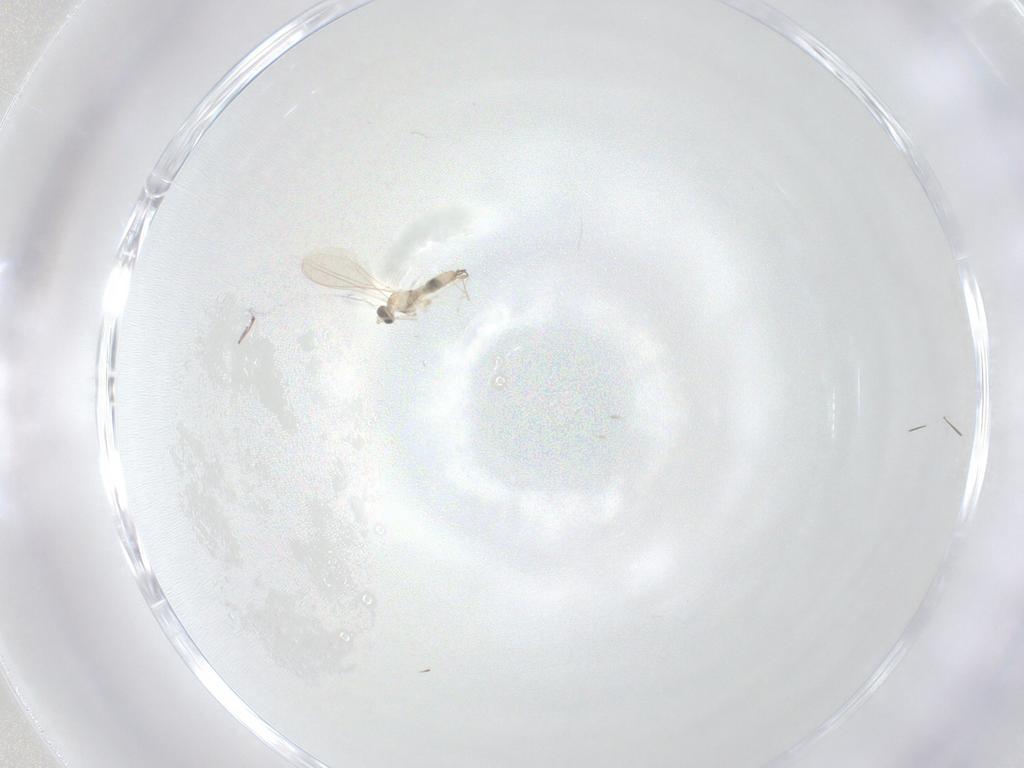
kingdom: Animalia
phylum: Arthropoda
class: Insecta
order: Diptera
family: Cecidomyiidae
